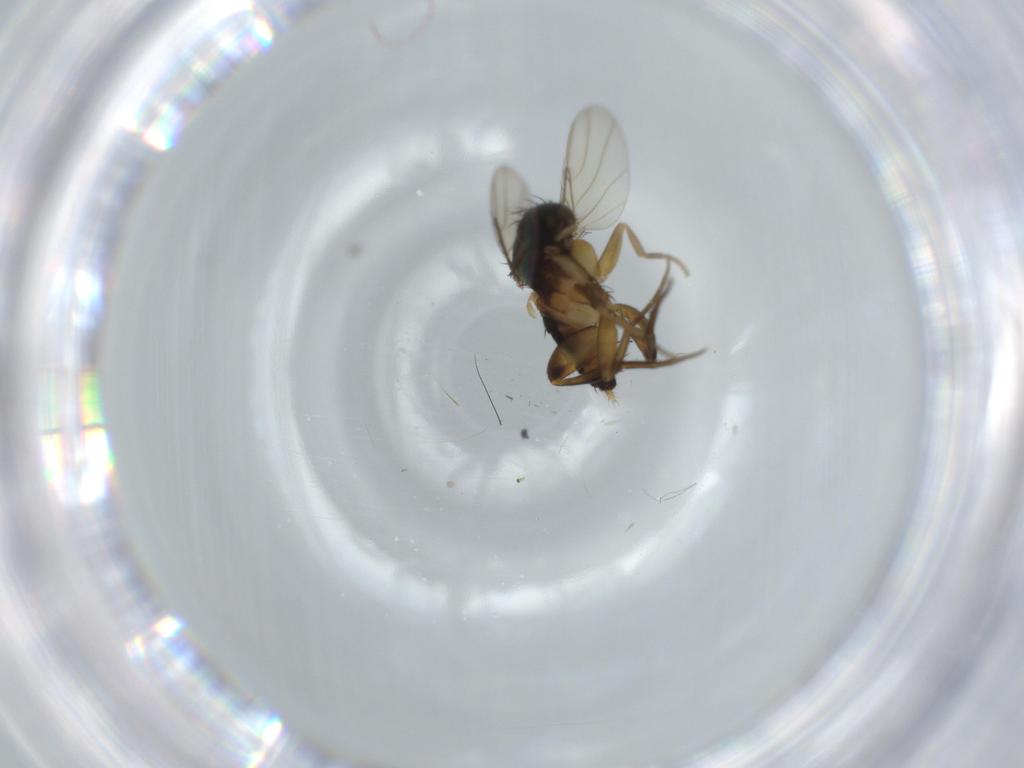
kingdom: Animalia
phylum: Arthropoda
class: Insecta
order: Diptera
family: Phoridae
